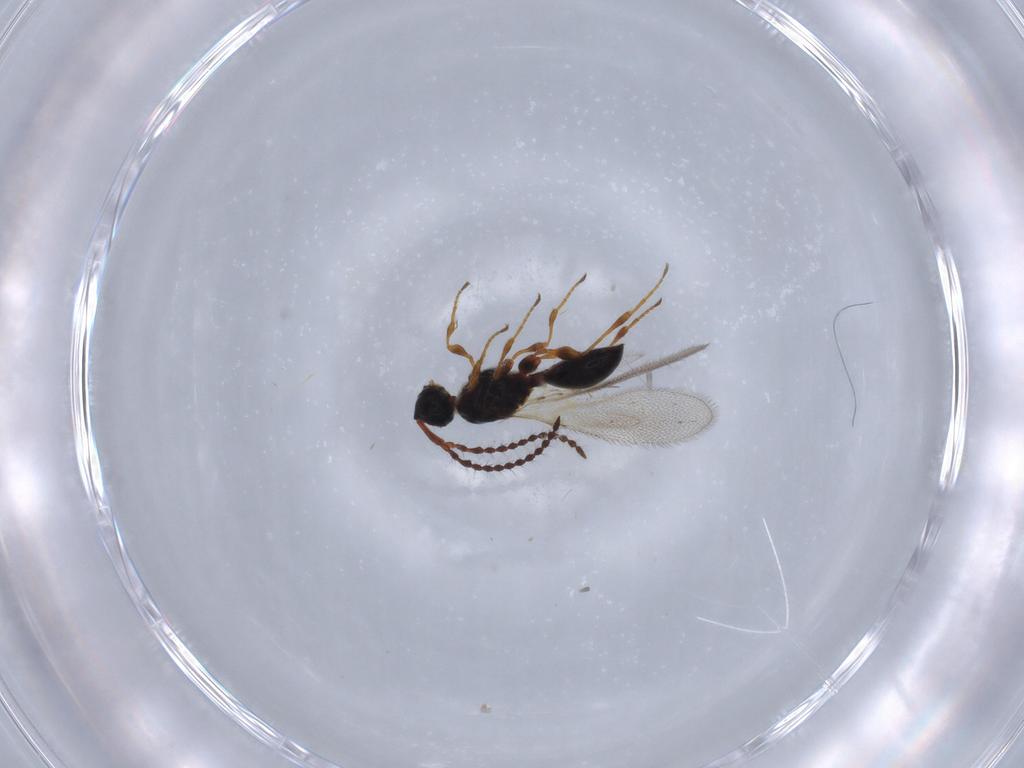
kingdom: Animalia
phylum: Arthropoda
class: Insecta
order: Hymenoptera
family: Diapriidae
